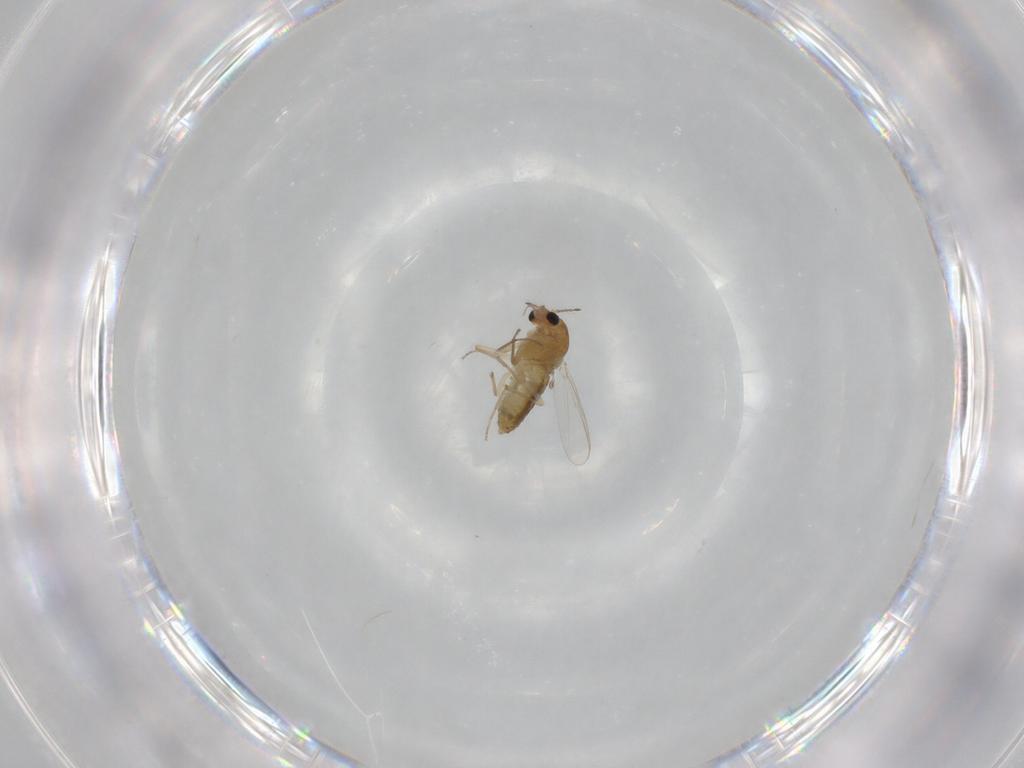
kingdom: Animalia
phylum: Arthropoda
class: Insecta
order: Diptera
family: Chironomidae
